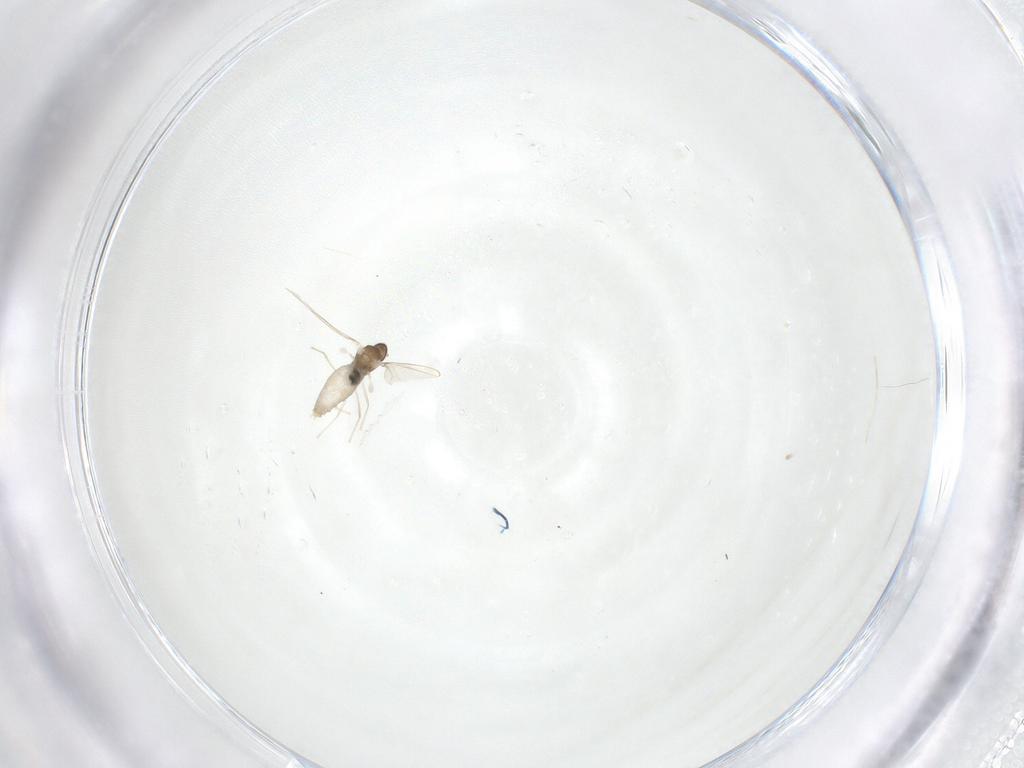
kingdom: Animalia
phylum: Arthropoda
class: Insecta
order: Diptera
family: Cecidomyiidae
